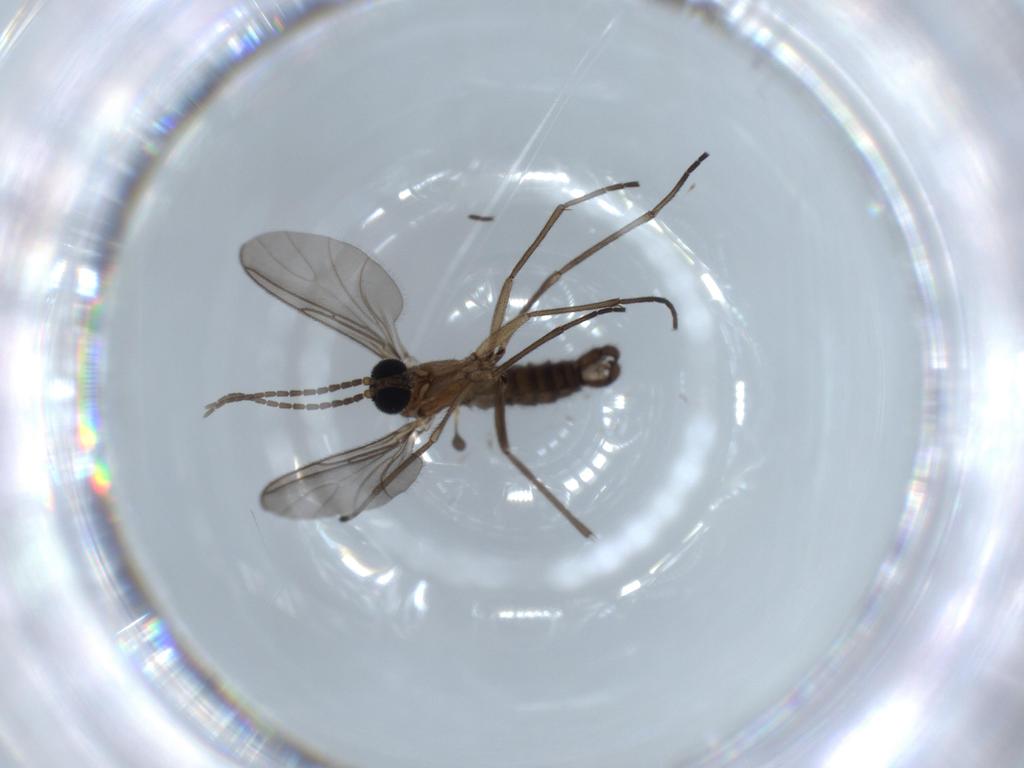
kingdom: Animalia
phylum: Arthropoda
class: Insecta
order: Diptera
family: Sciaridae
